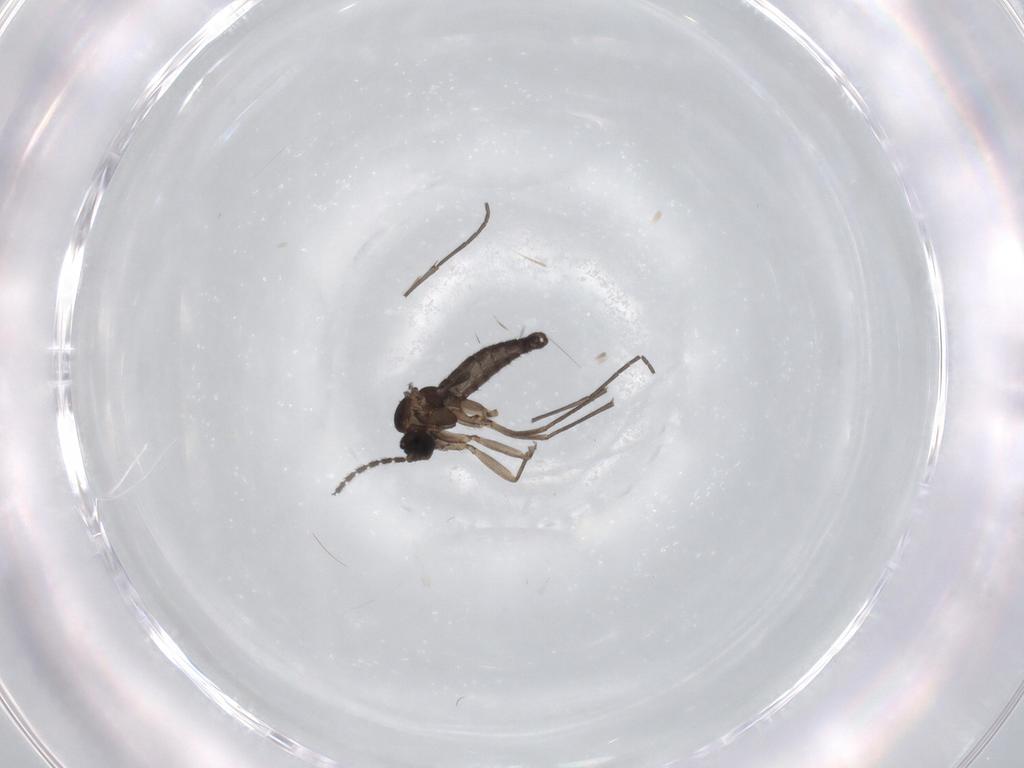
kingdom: Animalia
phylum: Arthropoda
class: Insecta
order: Diptera
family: Sciaridae
